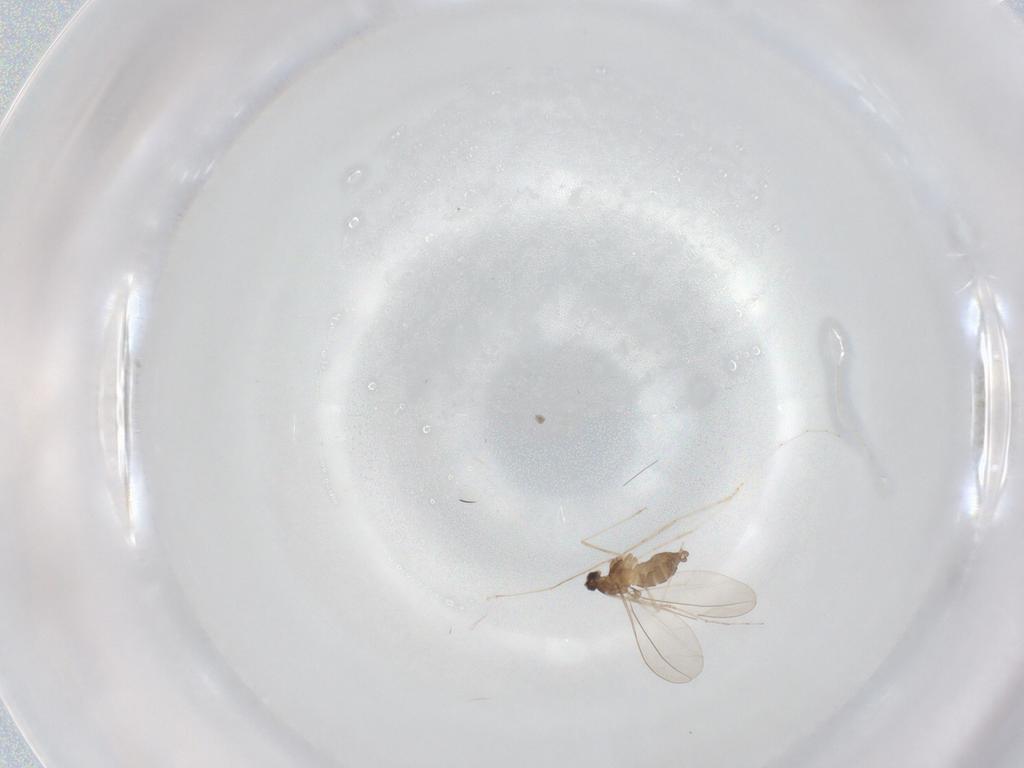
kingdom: Animalia
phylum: Arthropoda
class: Insecta
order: Diptera
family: Cecidomyiidae
